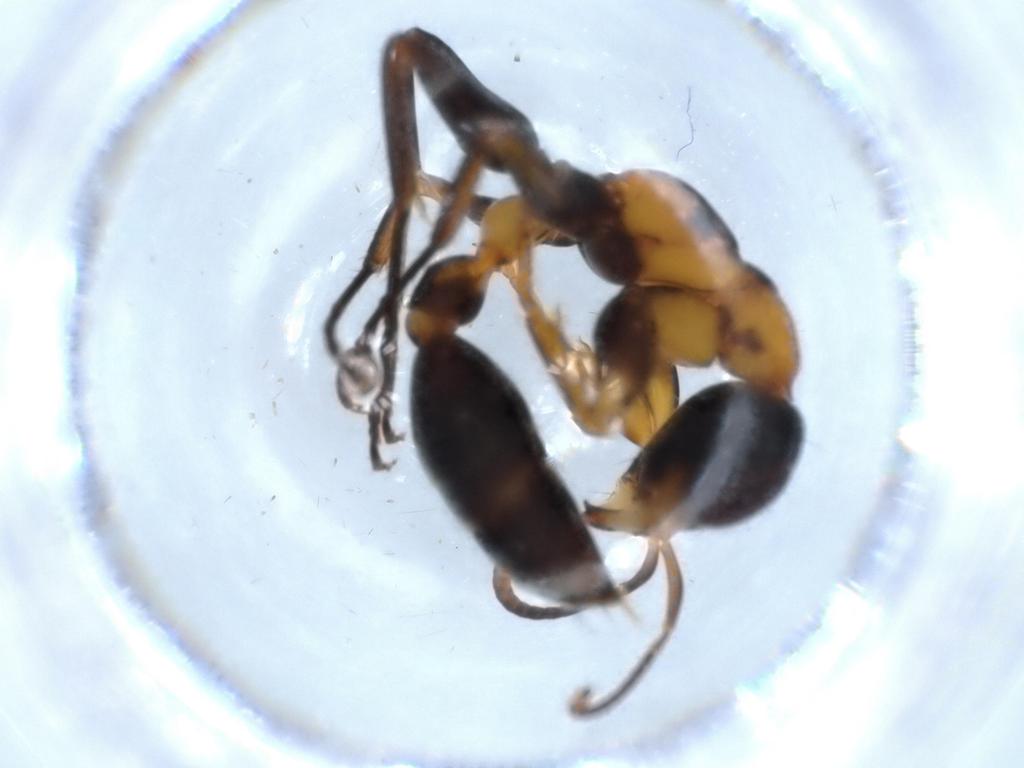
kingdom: Animalia
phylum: Arthropoda
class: Insecta
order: Hymenoptera
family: Formicidae
